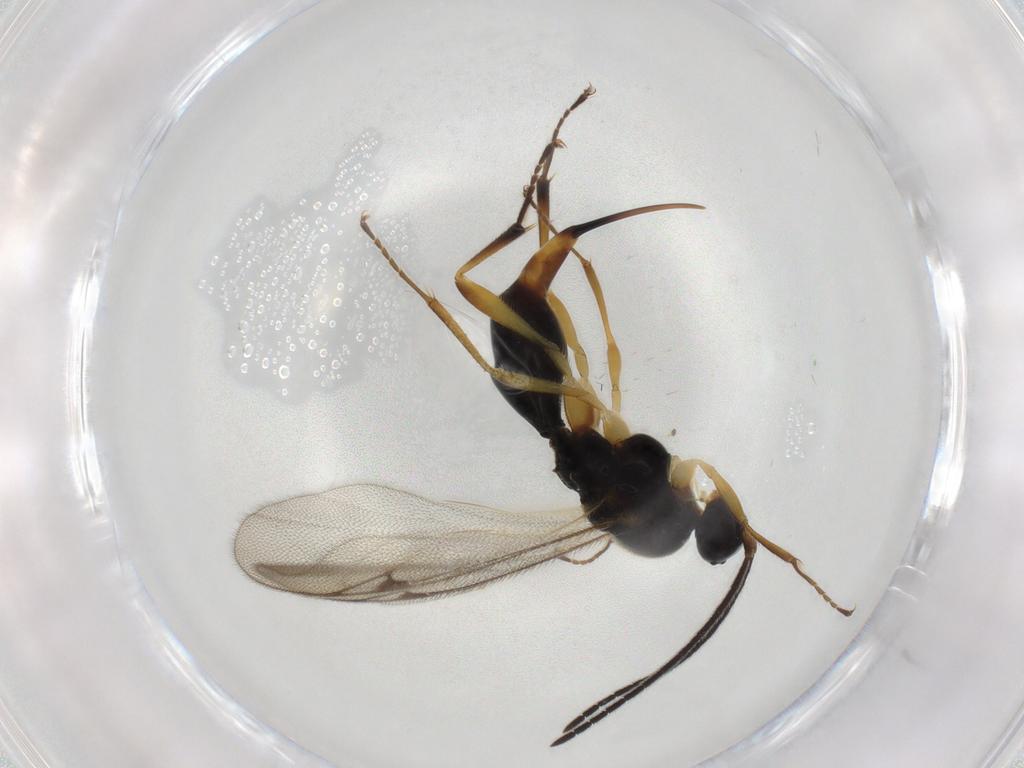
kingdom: Animalia
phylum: Arthropoda
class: Insecta
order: Hymenoptera
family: Proctotrupidae
